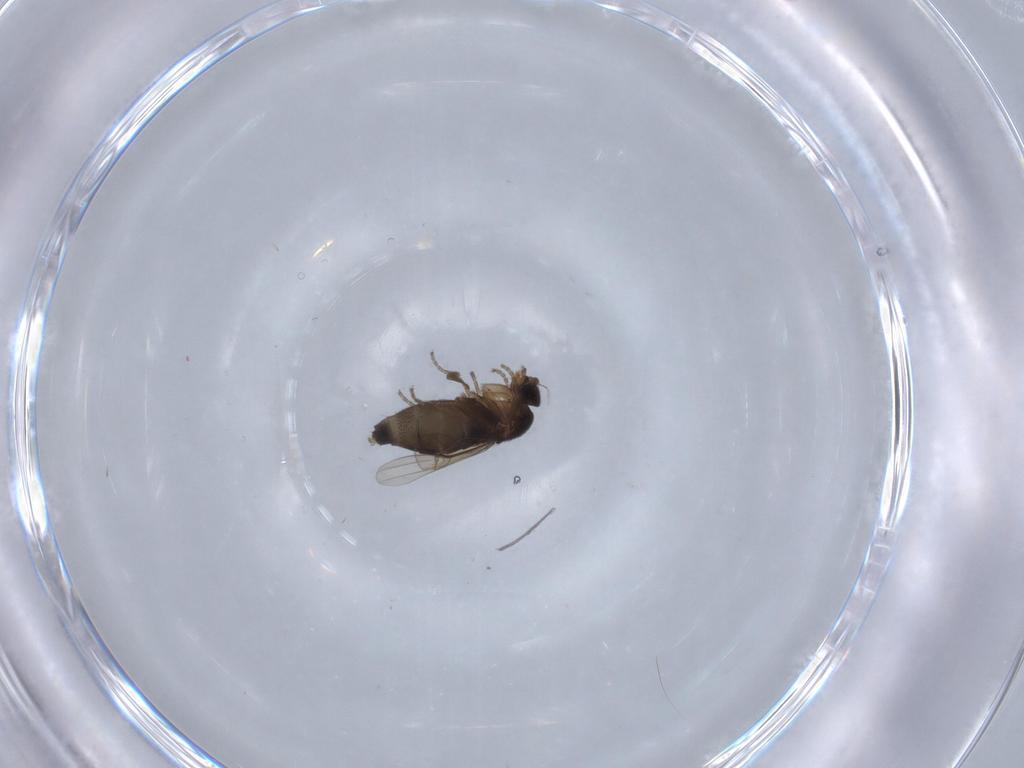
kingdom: Animalia
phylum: Arthropoda
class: Insecta
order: Diptera
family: Phoridae
